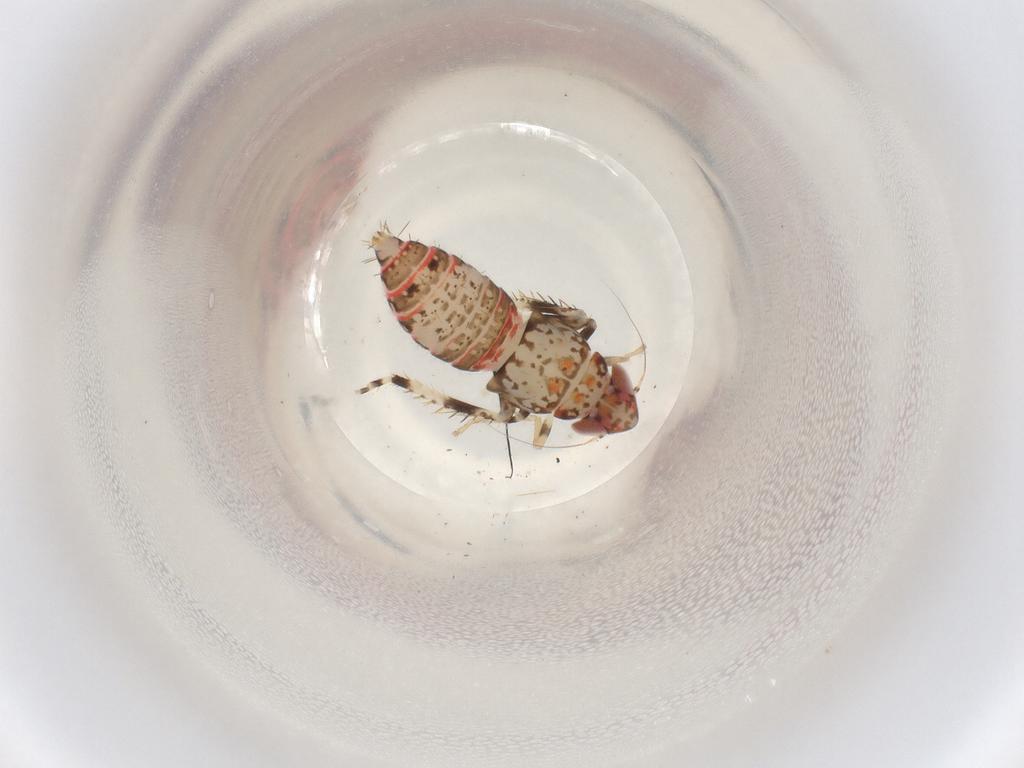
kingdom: Animalia
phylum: Arthropoda
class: Insecta
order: Hemiptera
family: Cicadellidae
